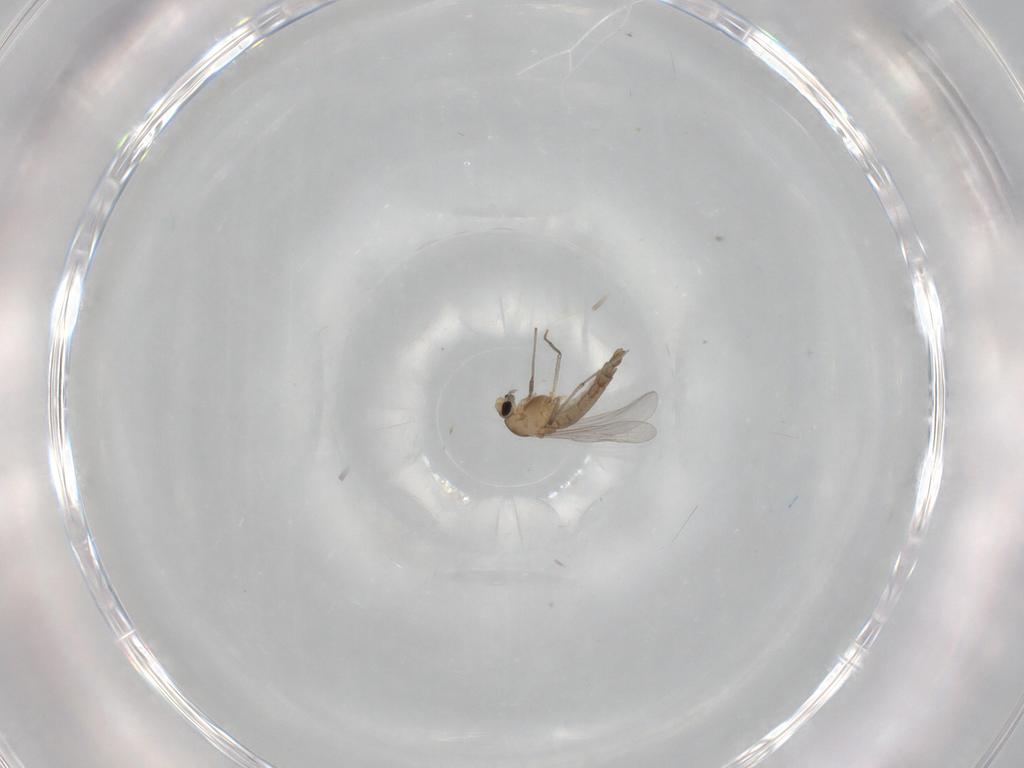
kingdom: Animalia
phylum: Arthropoda
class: Insecta
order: Diptera
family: Chironomidae
